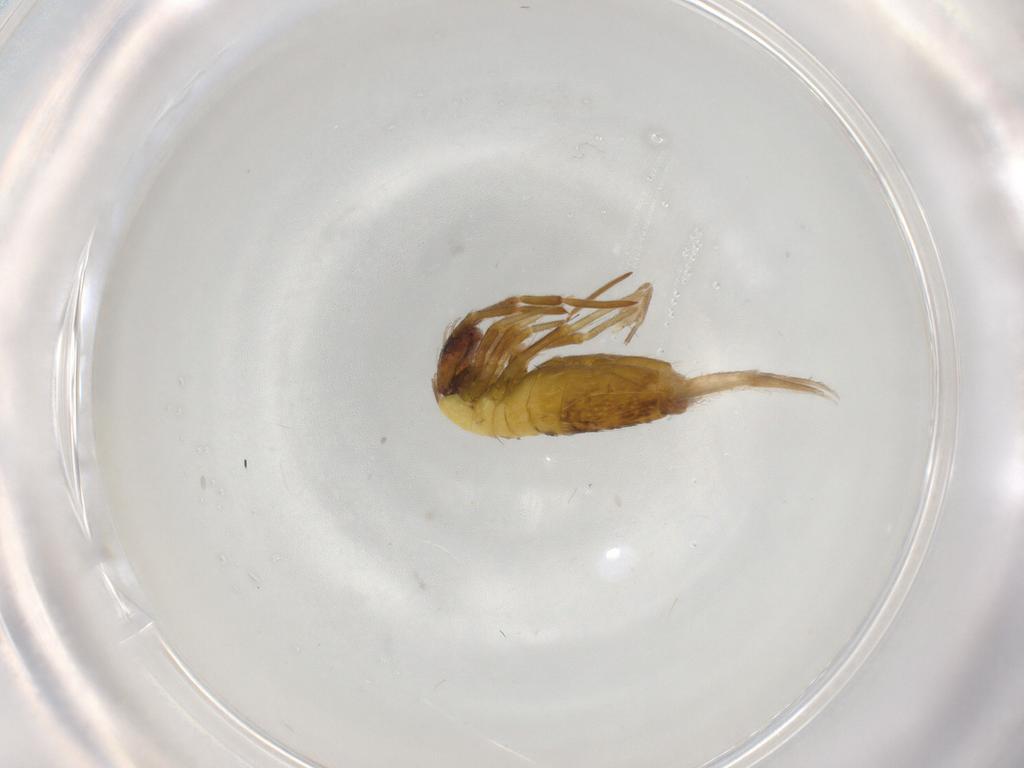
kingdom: Animalia
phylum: Arthropoda
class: Collembola
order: Entomobryomorpha
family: Entomobryidae
